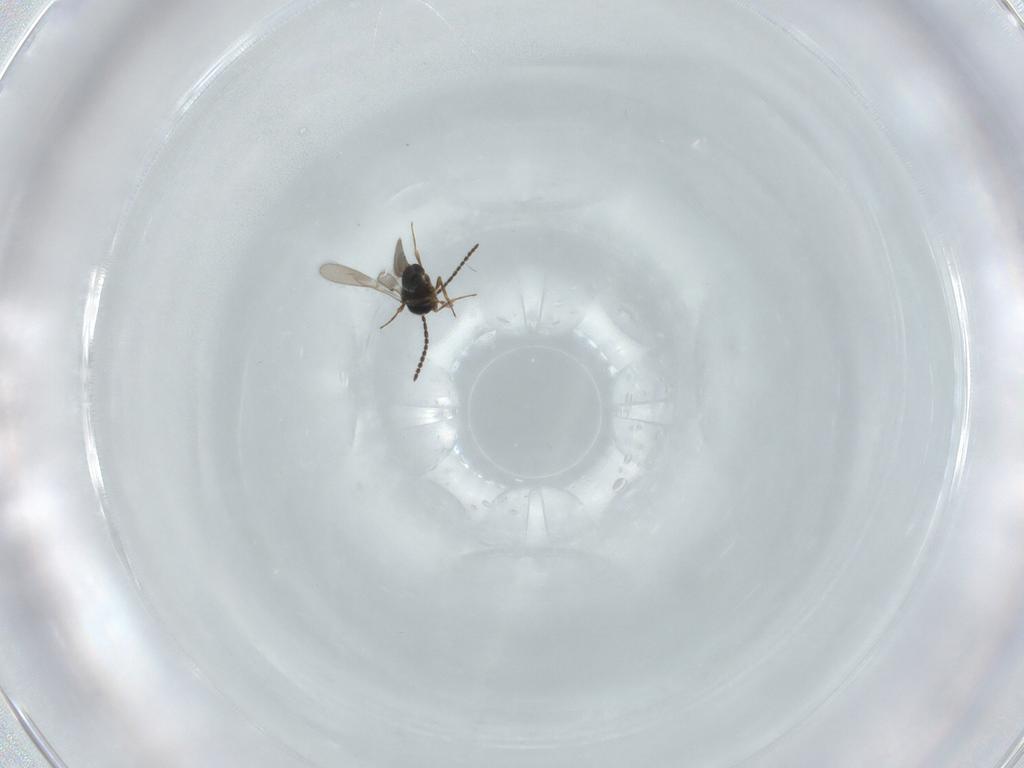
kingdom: Animalia
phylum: Arthropoda
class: Insecta
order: Hymenoptera
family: Scelionidae
